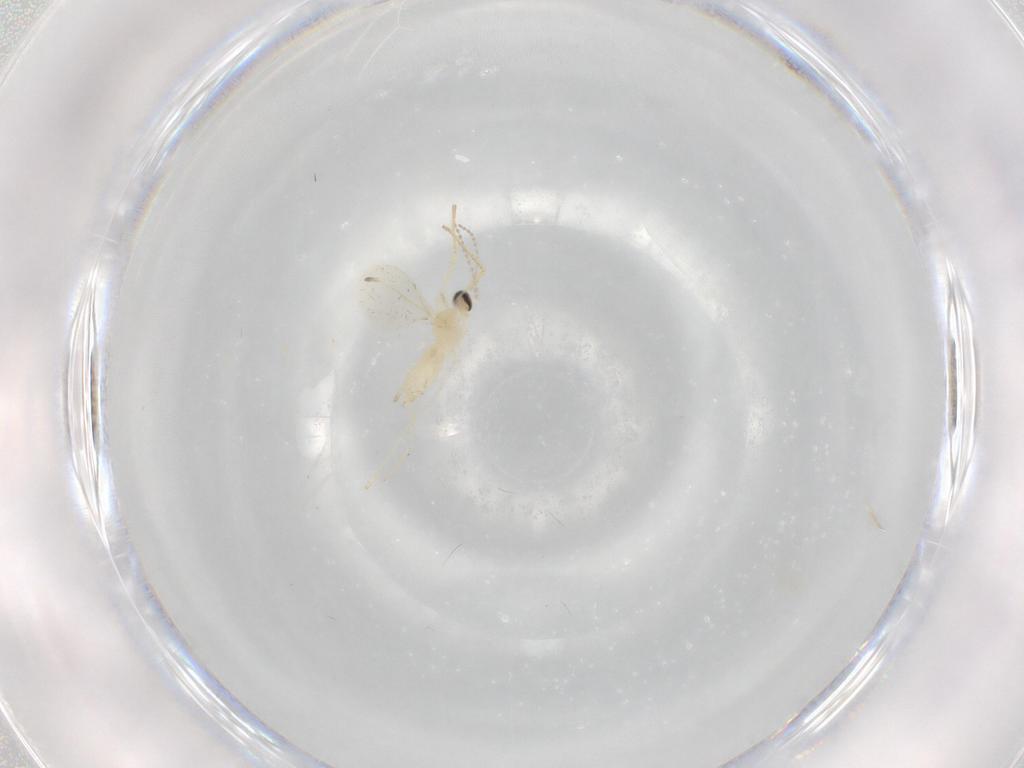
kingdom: Animalia
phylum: Arthropoda
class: Insecta
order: Diptera
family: Cecidomyiidae
